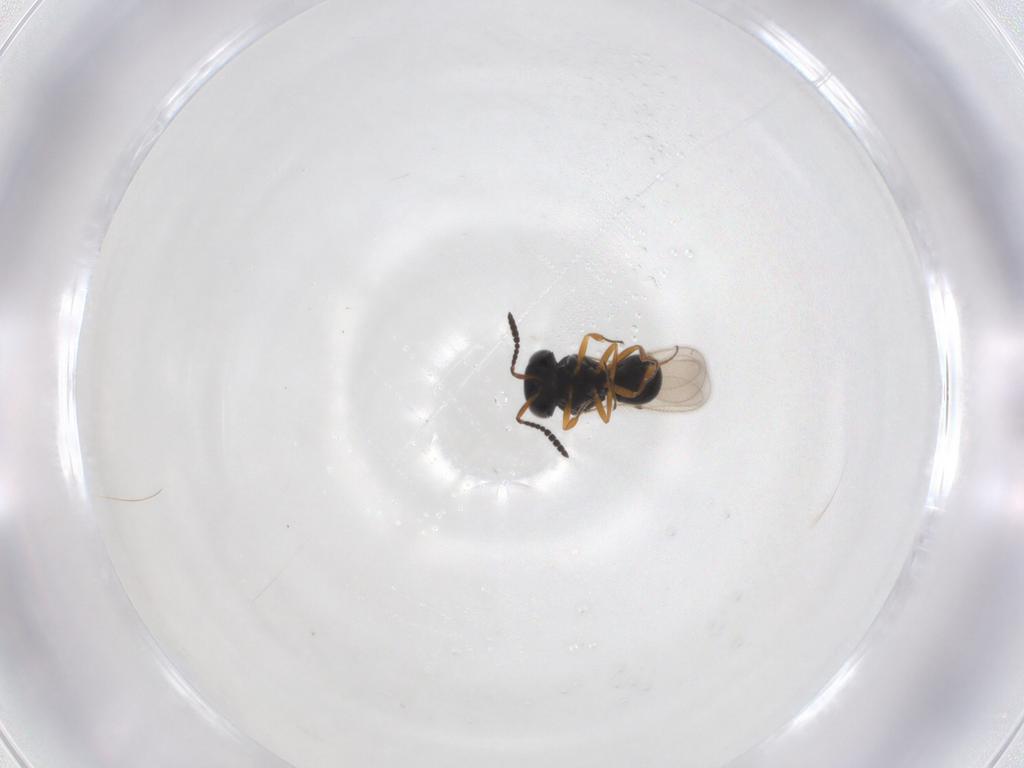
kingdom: Animalia
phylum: Arthropoda
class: Insecta
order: Hymenoptera
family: Scelionidae
